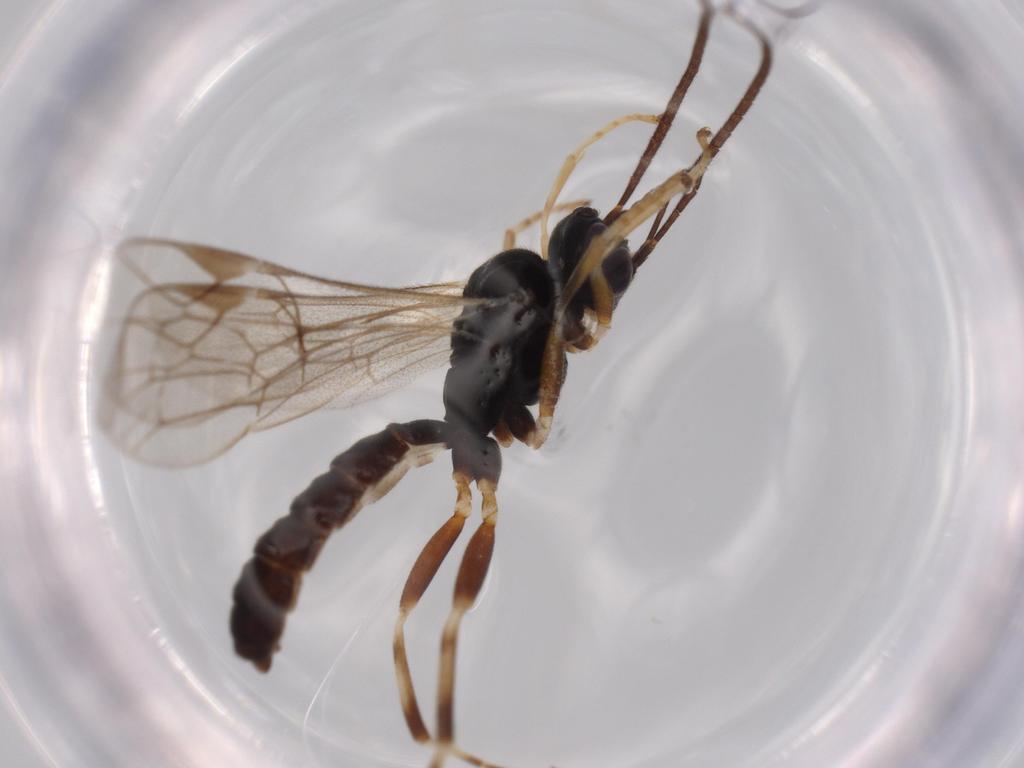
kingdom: Animalia
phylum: Arthropoda
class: Insecta
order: Hymenoptera
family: Ichneumonidae
